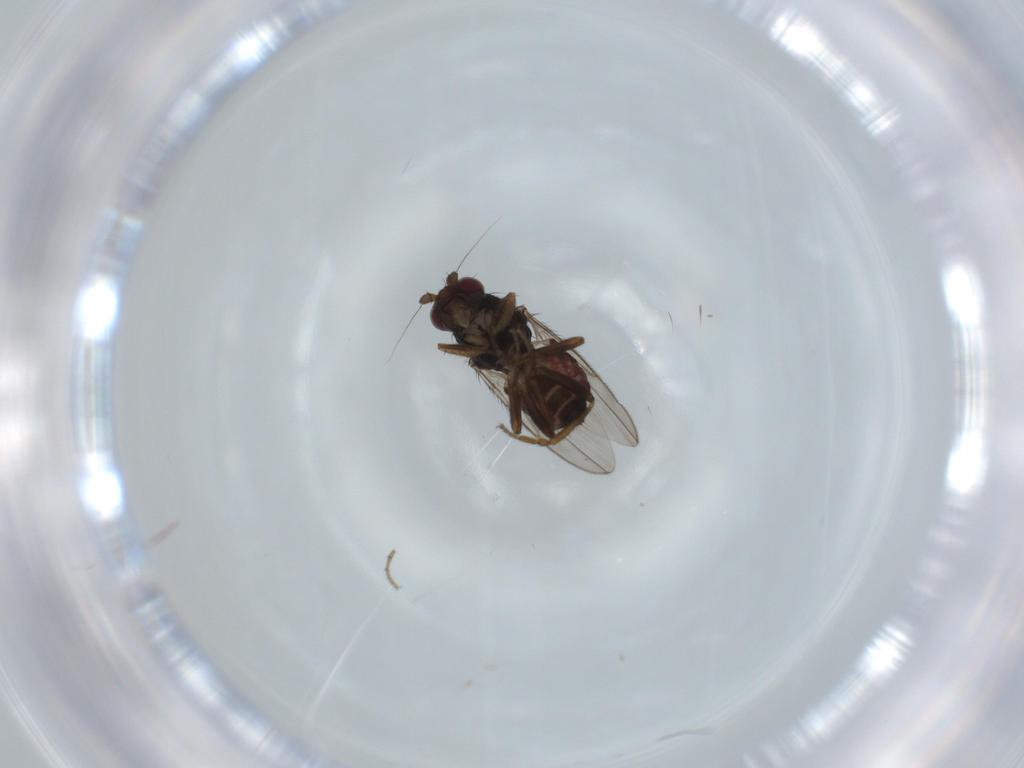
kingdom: Animalia
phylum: Arthropoda
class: Insecta
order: Diptera
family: Sphaeroceridae
